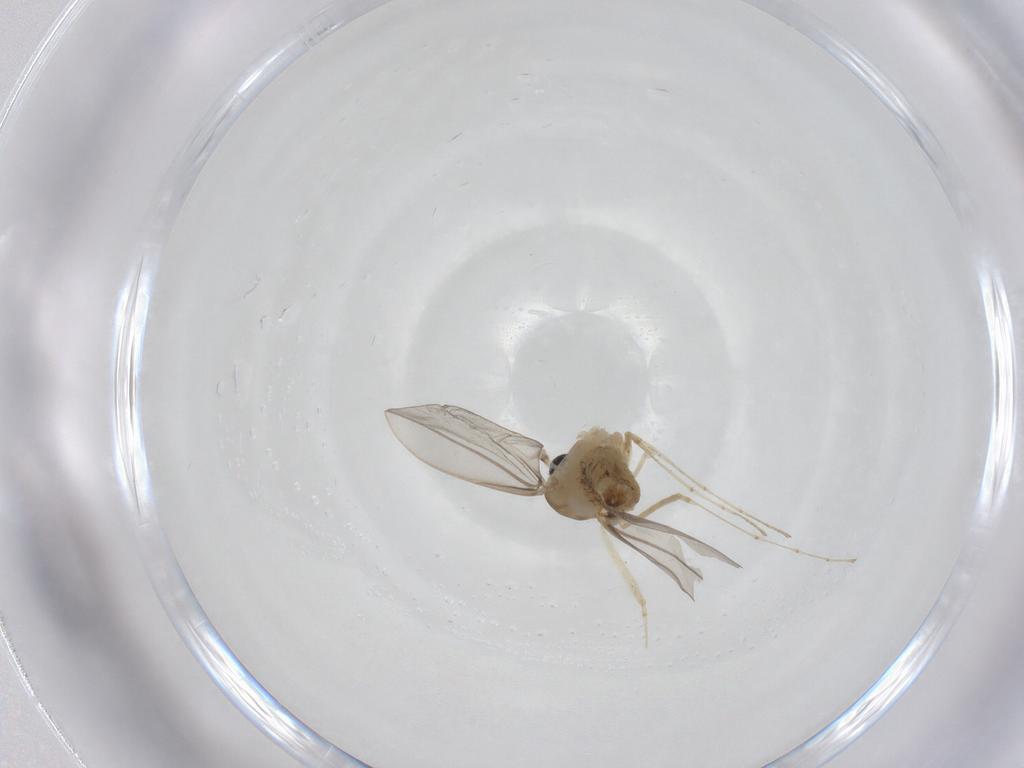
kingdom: Animalia
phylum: Arthropoda
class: Insecta
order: Diptera
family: Cecidomyiidae
